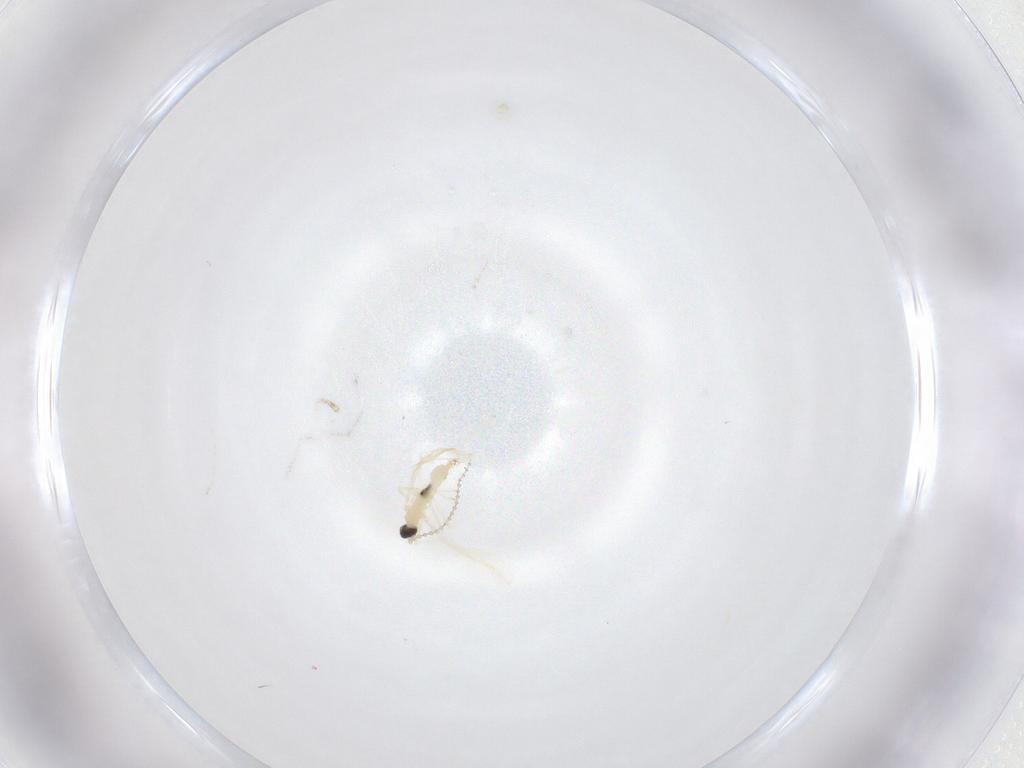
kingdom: Animalia
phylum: Arthropoda
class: Insecta
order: Diptera
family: Cecidomyiidae
